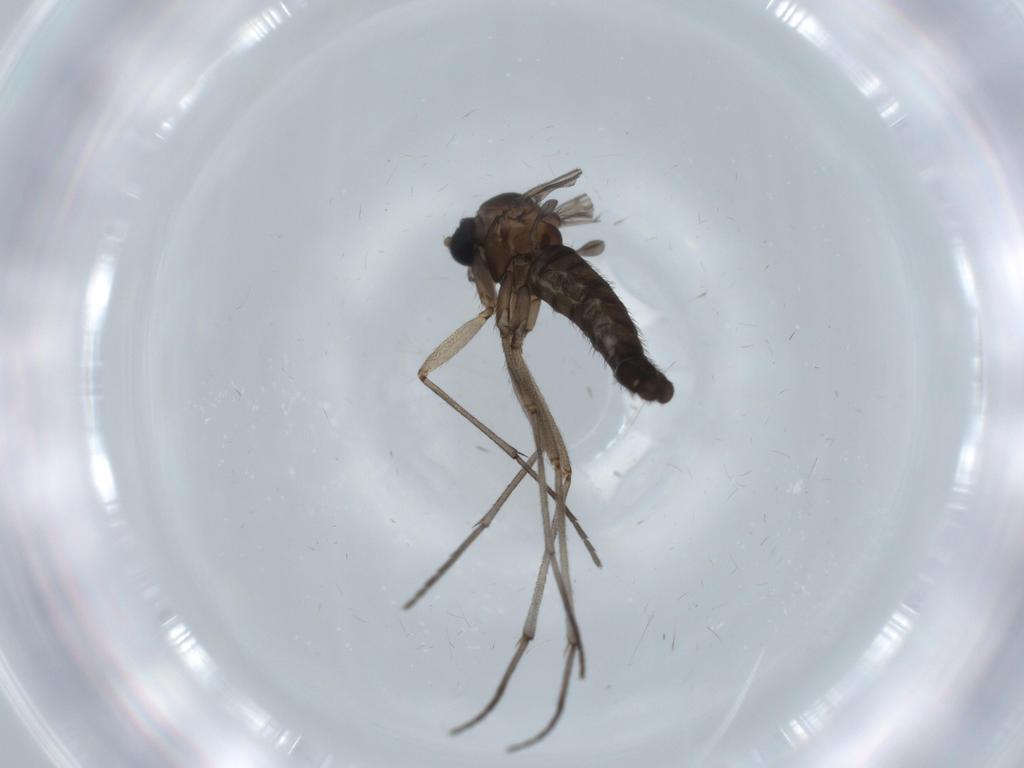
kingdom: Animalia
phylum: Arthropoda
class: Insecta
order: Diptera
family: Sciaridae
